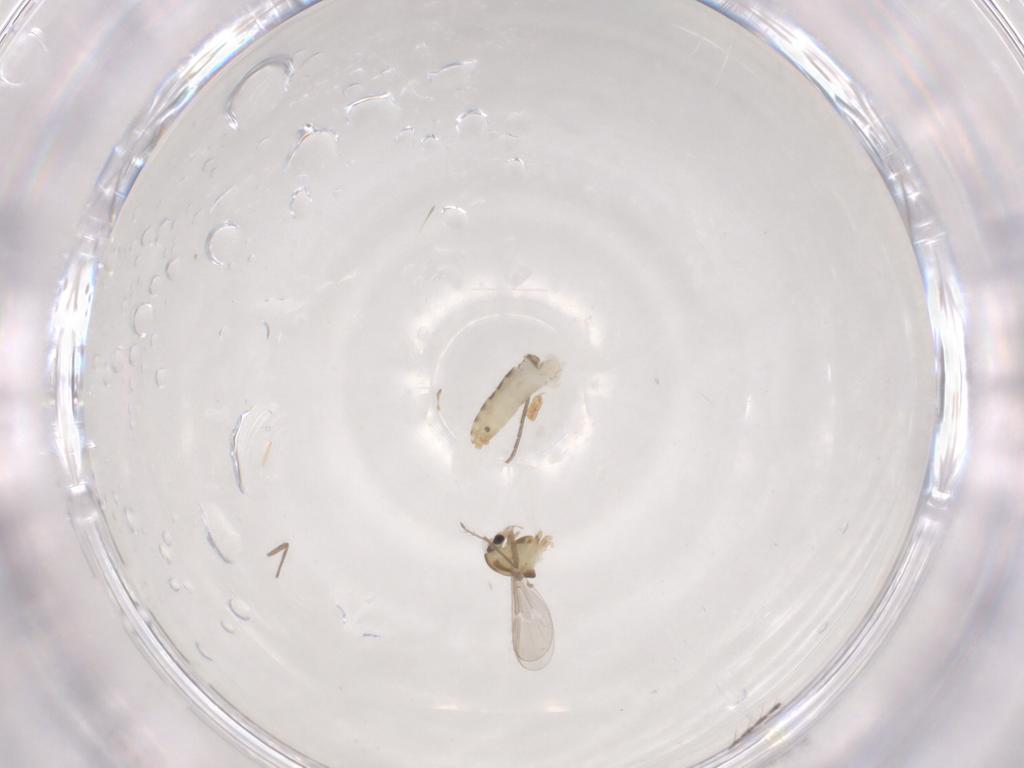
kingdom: Animalia
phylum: Arthropoda
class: Insecta
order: Diptera
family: Chironomidae
